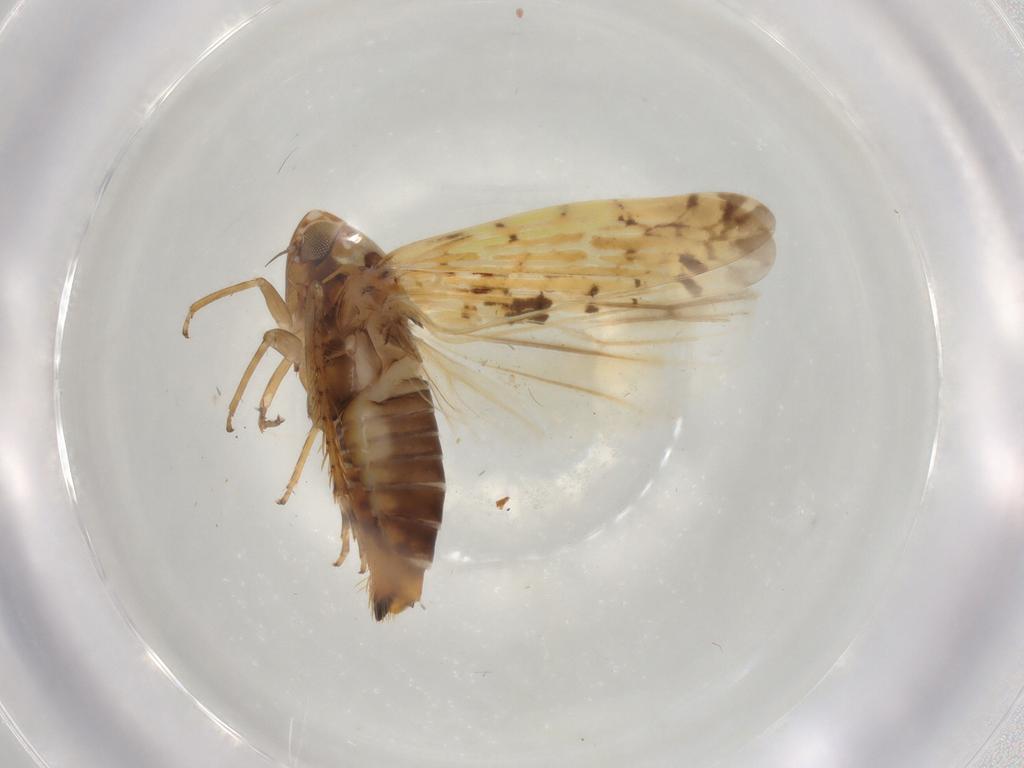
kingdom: Animalia
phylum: Arthropoda
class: Insecta
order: Hemiptera
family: Cicadellidae
